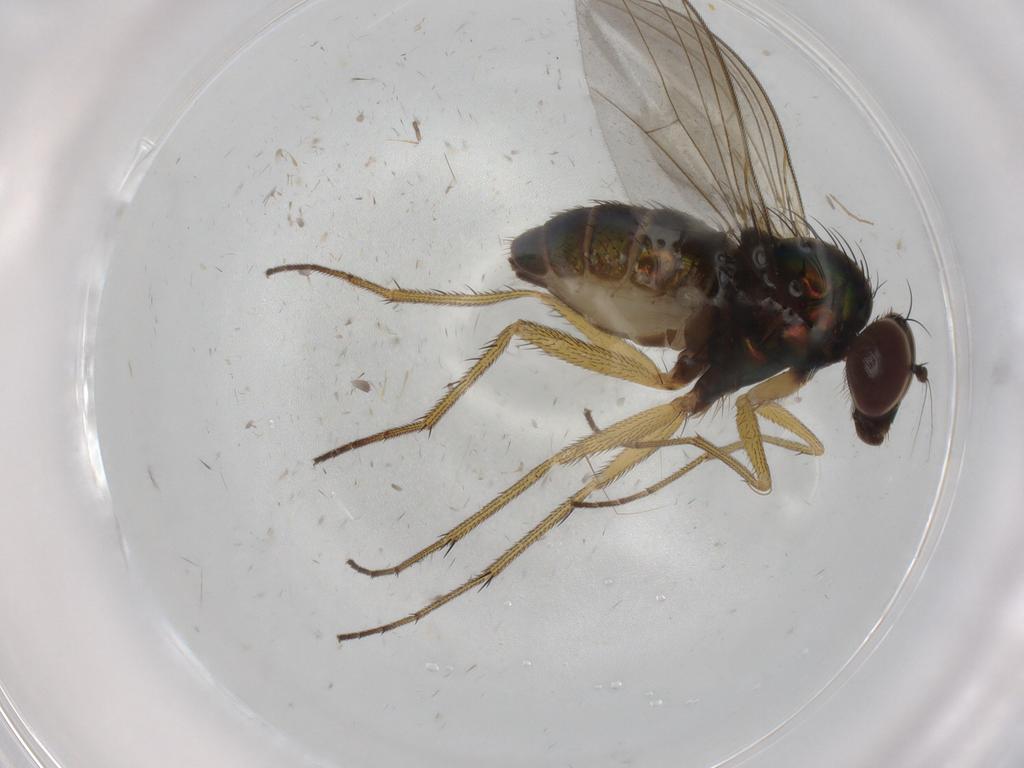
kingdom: Animalia
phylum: Arthropoda
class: Insecta
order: Diptera
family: Dolichopodidae
